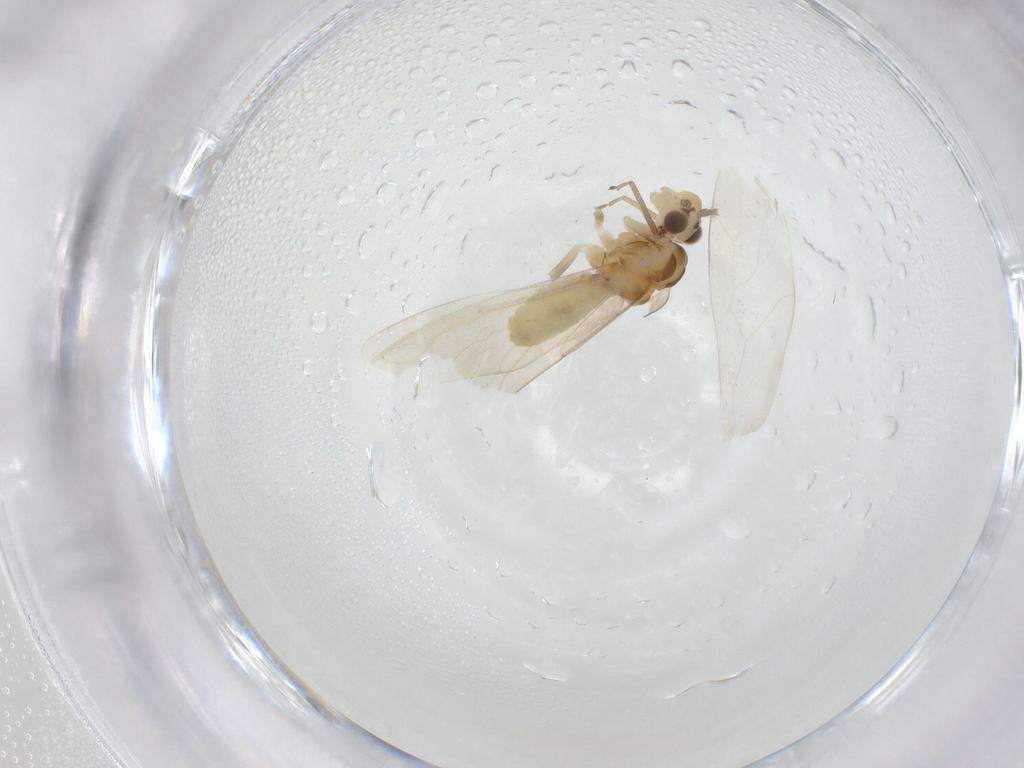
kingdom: Animalia
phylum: Arthropoda
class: Insecta
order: Psocodea
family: Caeciliusidae
